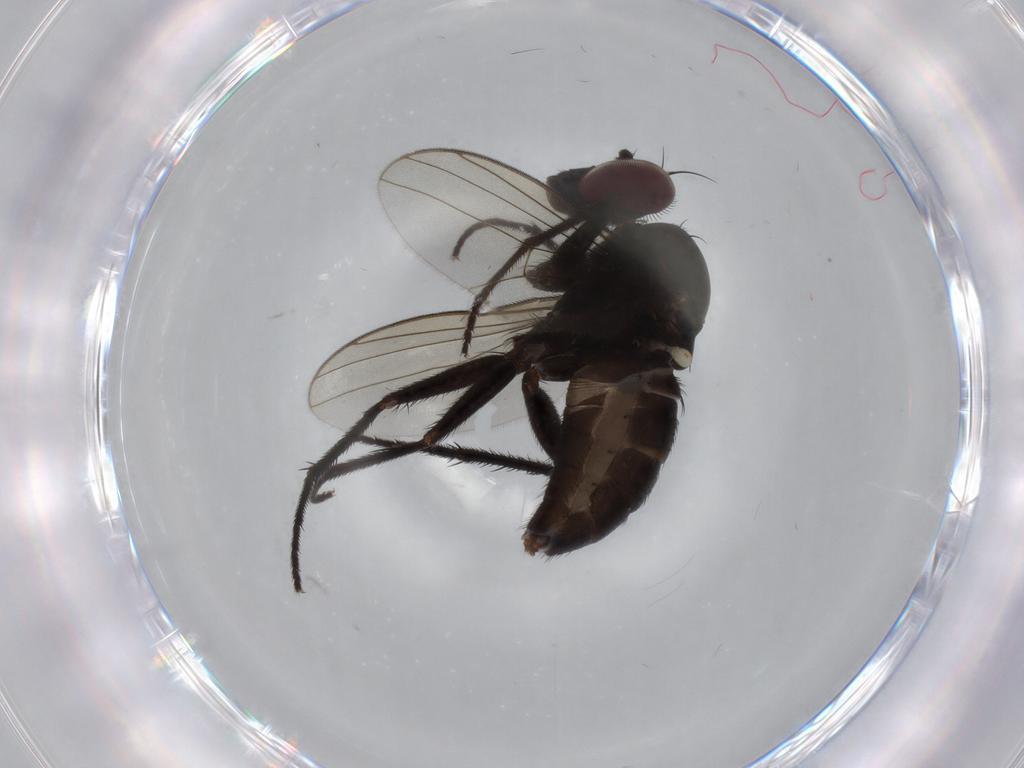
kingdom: Animalia
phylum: Arthropoda
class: Insecta
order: Diptera
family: Dolichopodidae
